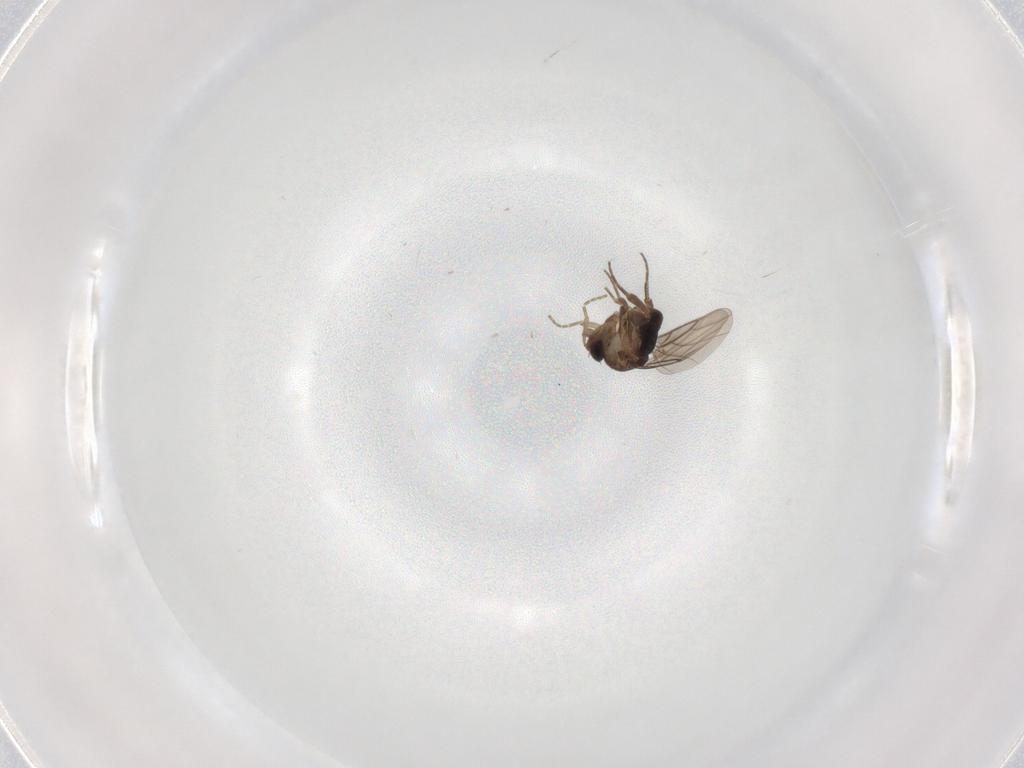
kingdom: Animalia
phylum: Arthropoda
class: Insecta
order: Diptera
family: Phoridae
